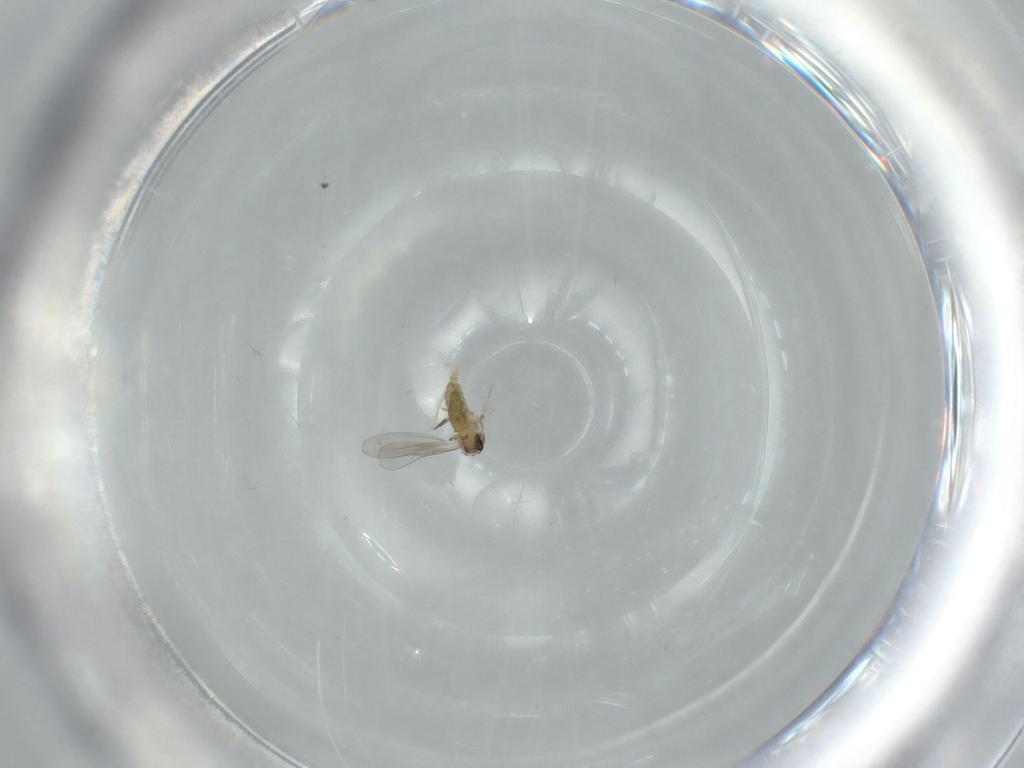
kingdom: Animalia
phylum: Arthropoda
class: Insecta
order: Diptera
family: Cecidomyiidae
